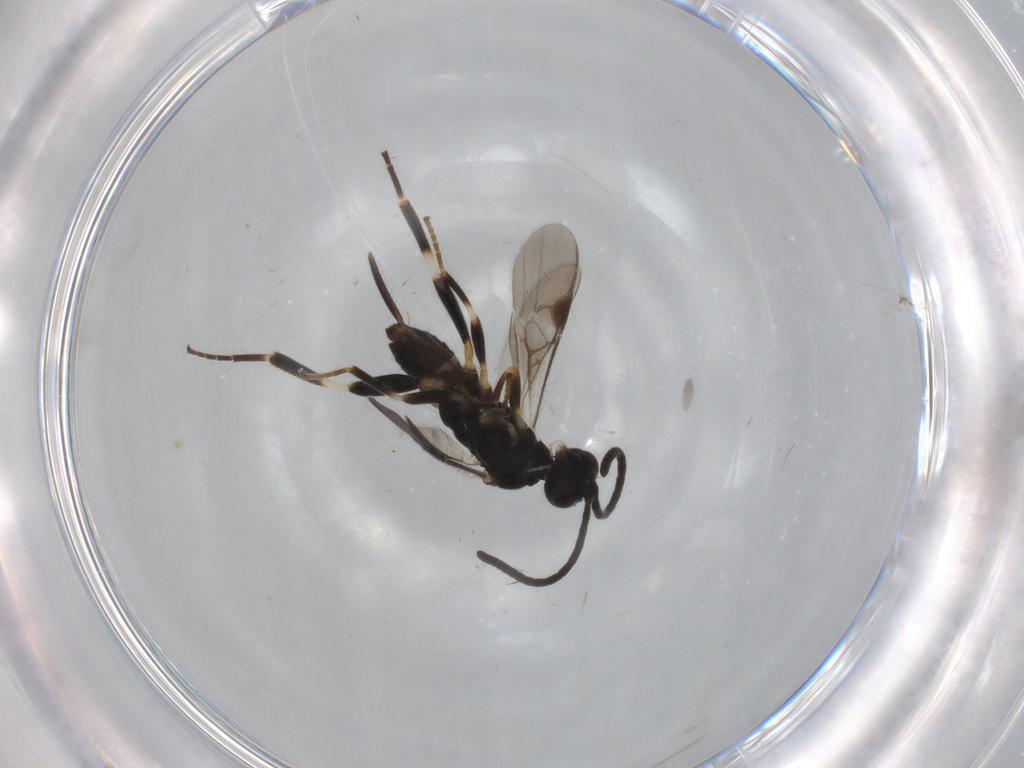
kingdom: Animalia
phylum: Arthropoda
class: Insecta
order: Hymenoptera
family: Braconidae
